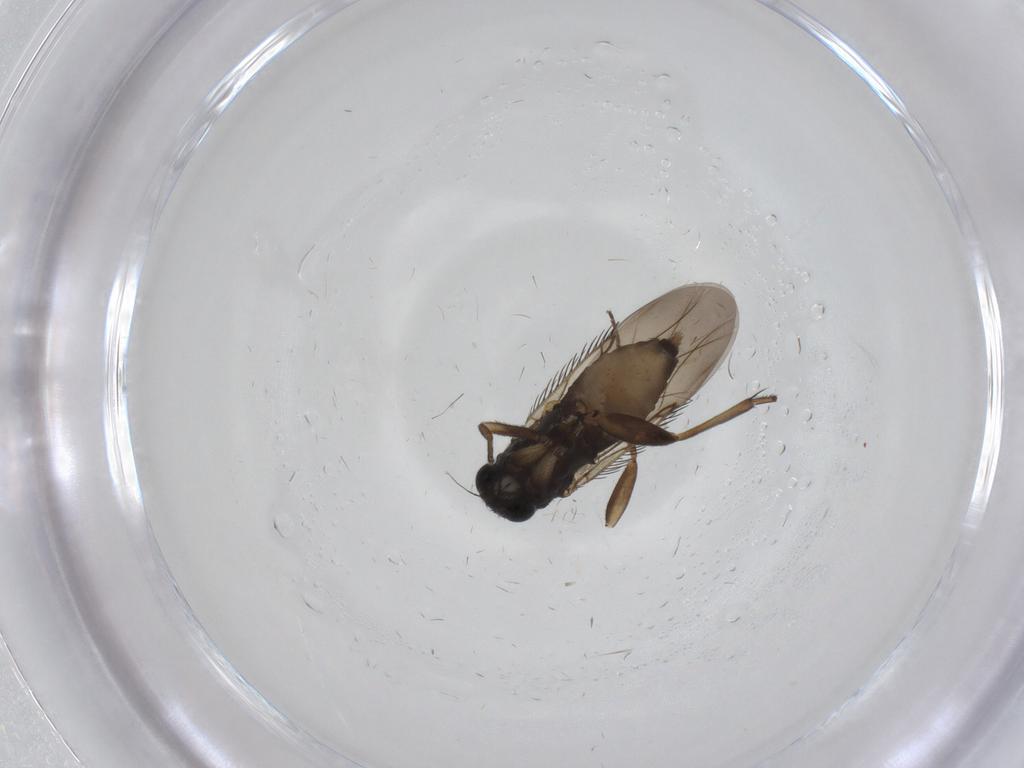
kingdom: Animalia
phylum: Arthropoda
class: Insecta
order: Diptera
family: Phoridae
